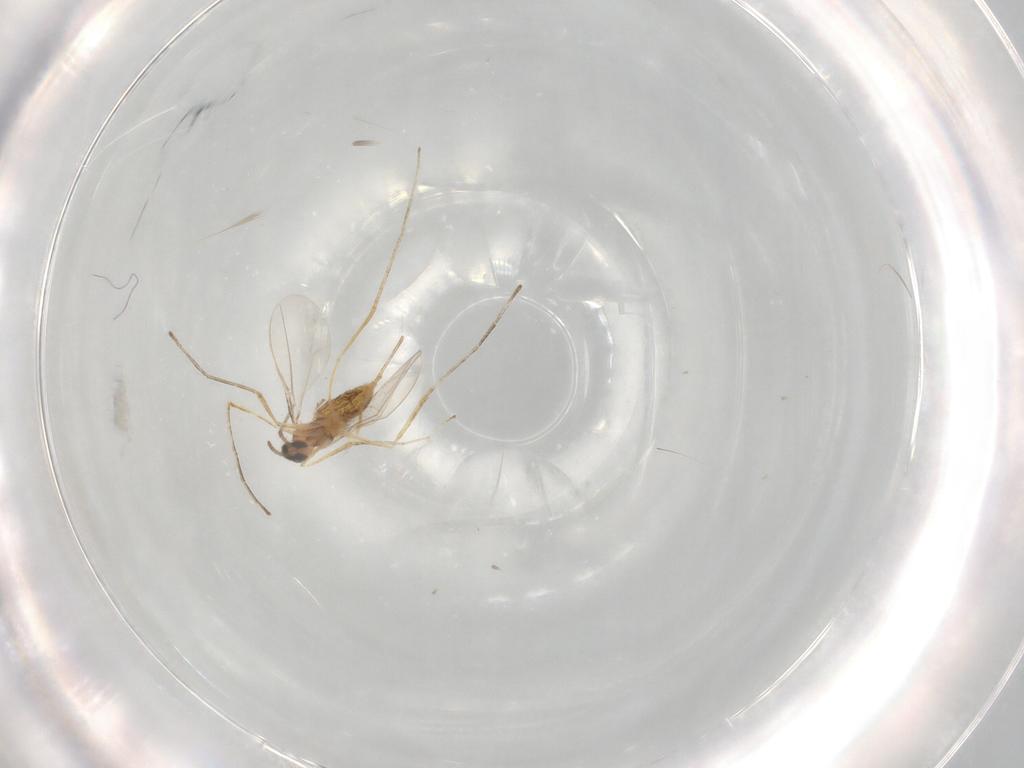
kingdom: Animalia
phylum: Arthropoda
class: Insecta
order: Diptera
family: Cecidomyiidae
